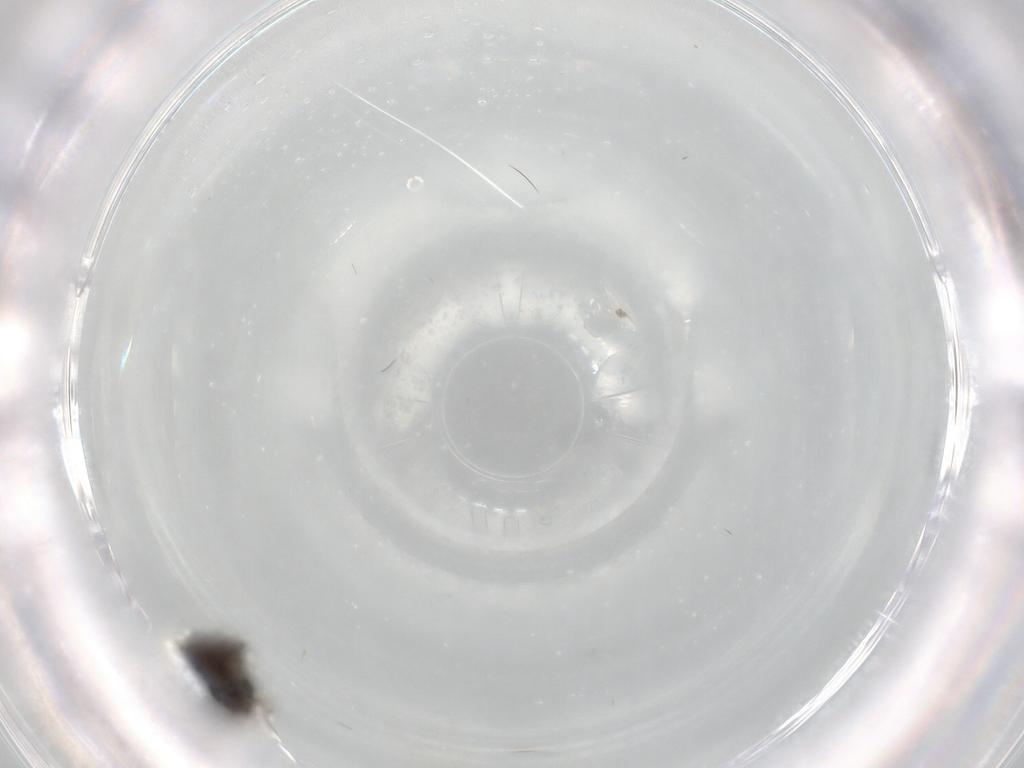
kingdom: Animalia
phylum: Arthropoda
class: Insecta
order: Diptera
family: Phoridae
